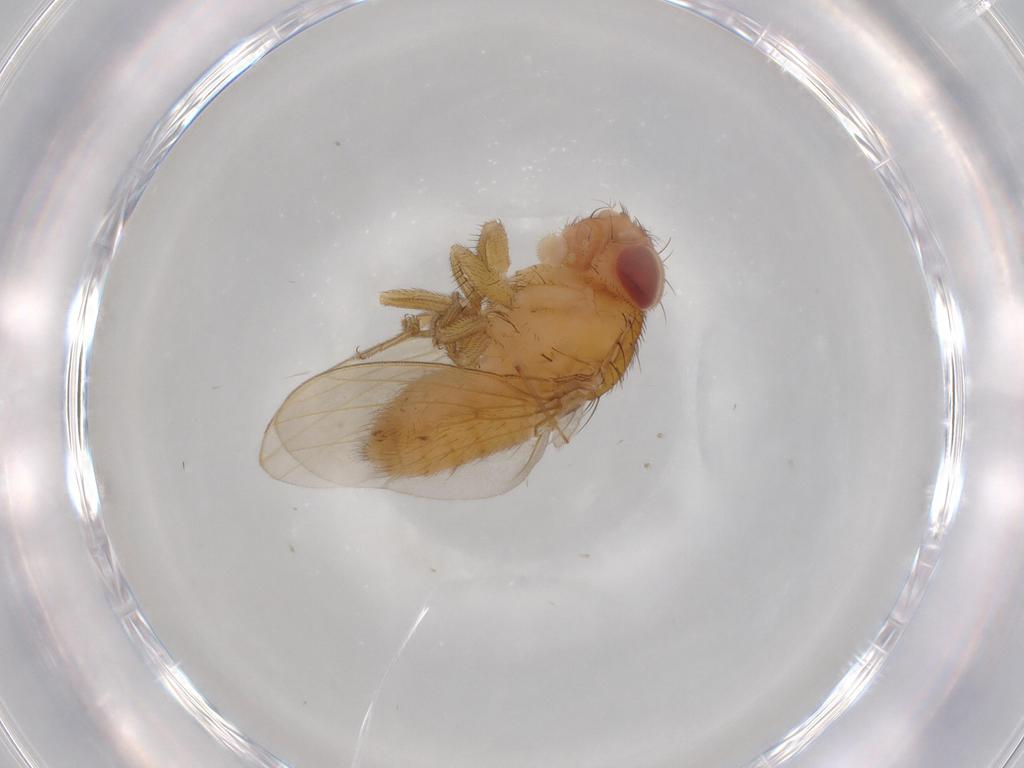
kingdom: Animalia
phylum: Arthropoda
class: Insecta
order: Diptera
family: Drosophilidae
